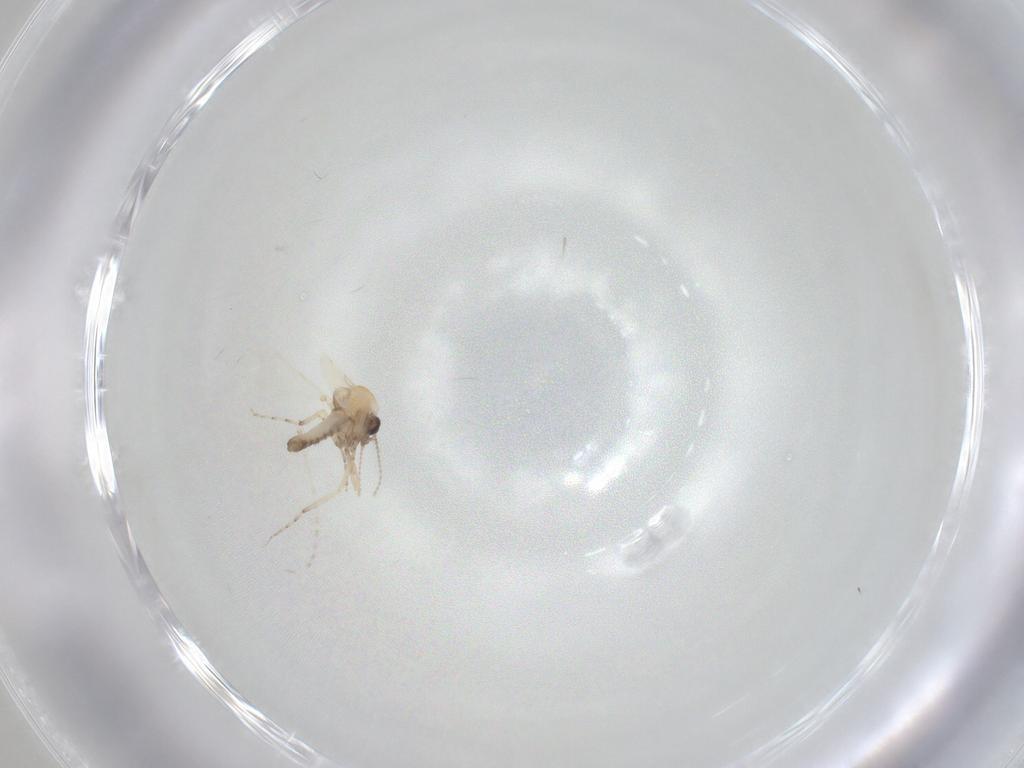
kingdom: Animalia
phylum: Arthropoda
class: Insecta
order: Diptera
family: Cecidomyiidae
